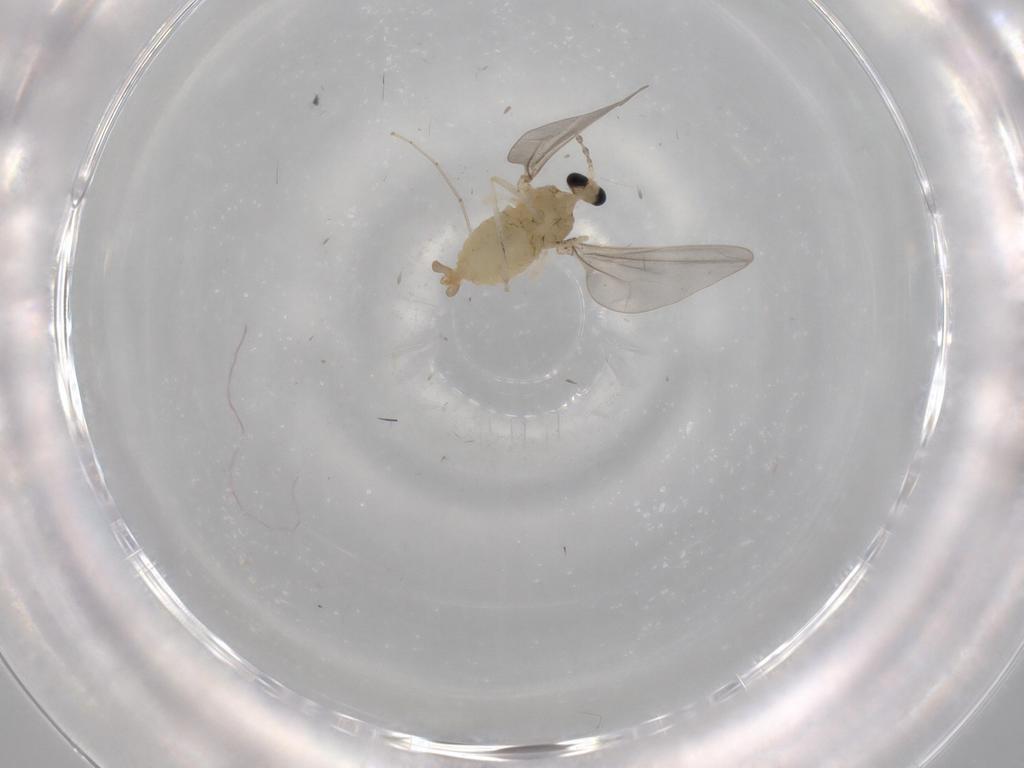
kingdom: Animalia
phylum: Arthropoda
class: Insecta
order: Diptera
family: Cecidomyiidae
